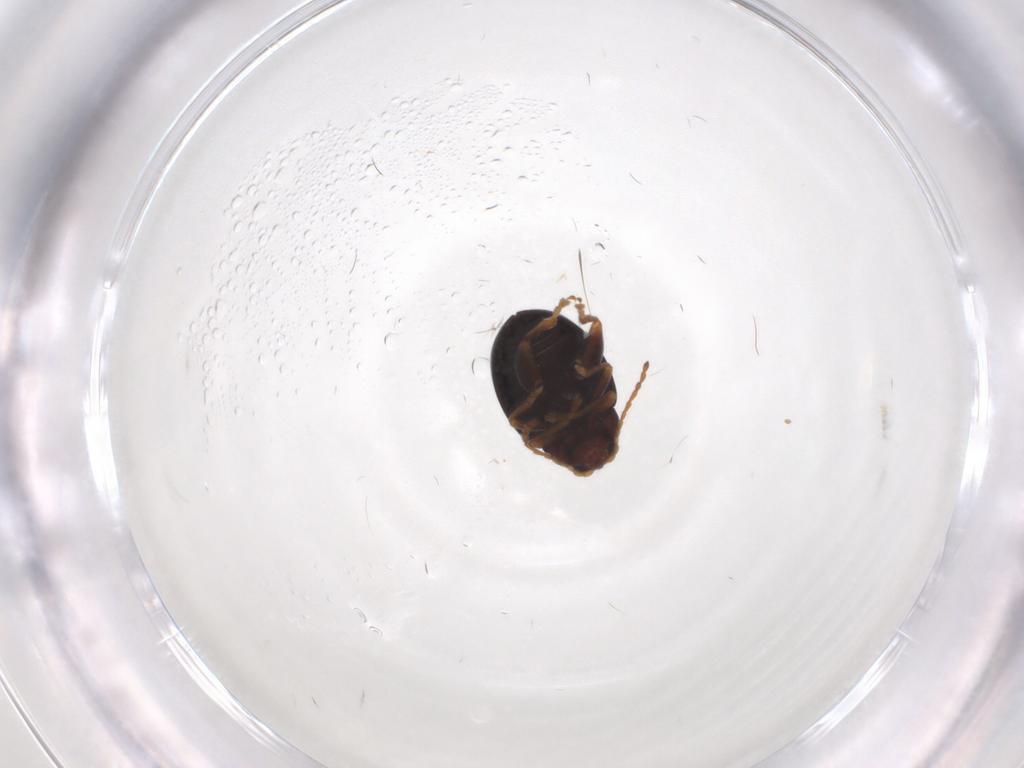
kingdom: Animalia
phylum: Arthropoda
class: Insecta
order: Coleoptera
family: Chrysomelidae
